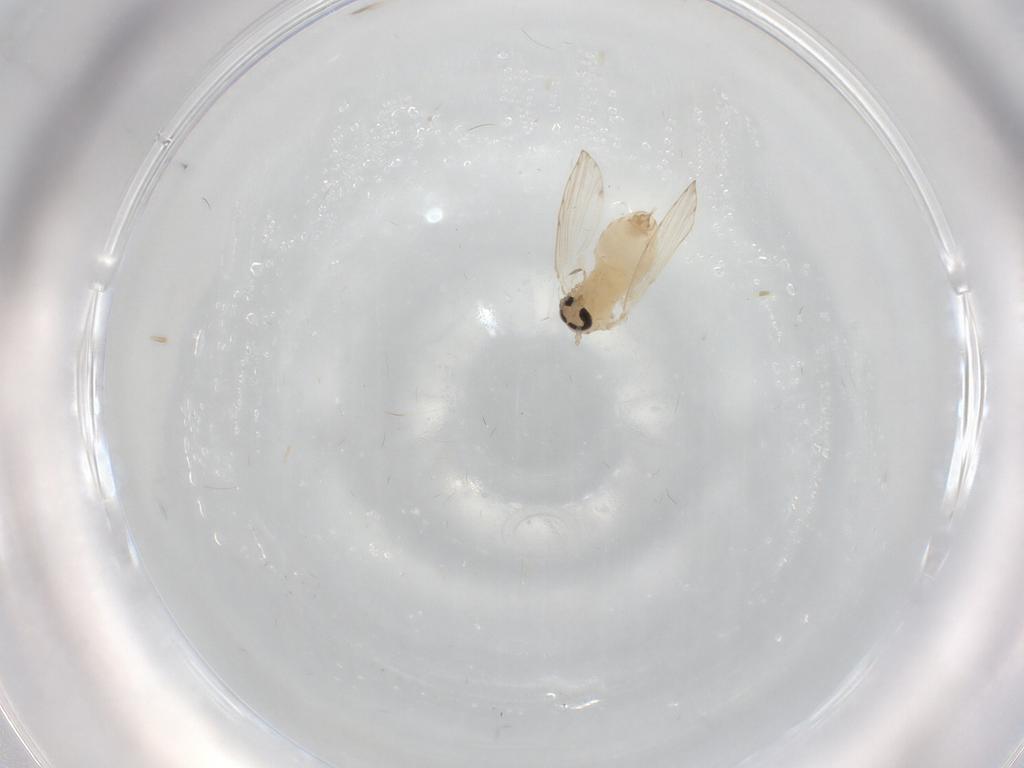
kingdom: Animalia
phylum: Arthropoda
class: Insecta
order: Diptera
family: Psychodidae
